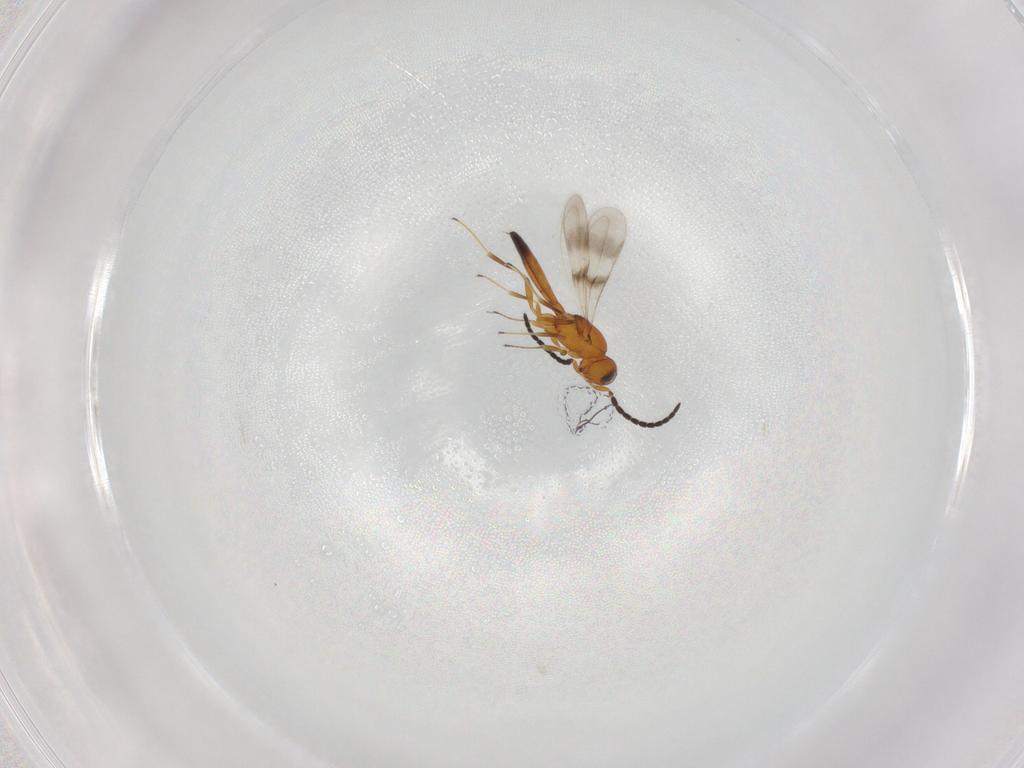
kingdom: Animalia
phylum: Arthropoda
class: Insecta
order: Hymenoptera
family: Scelionidae
